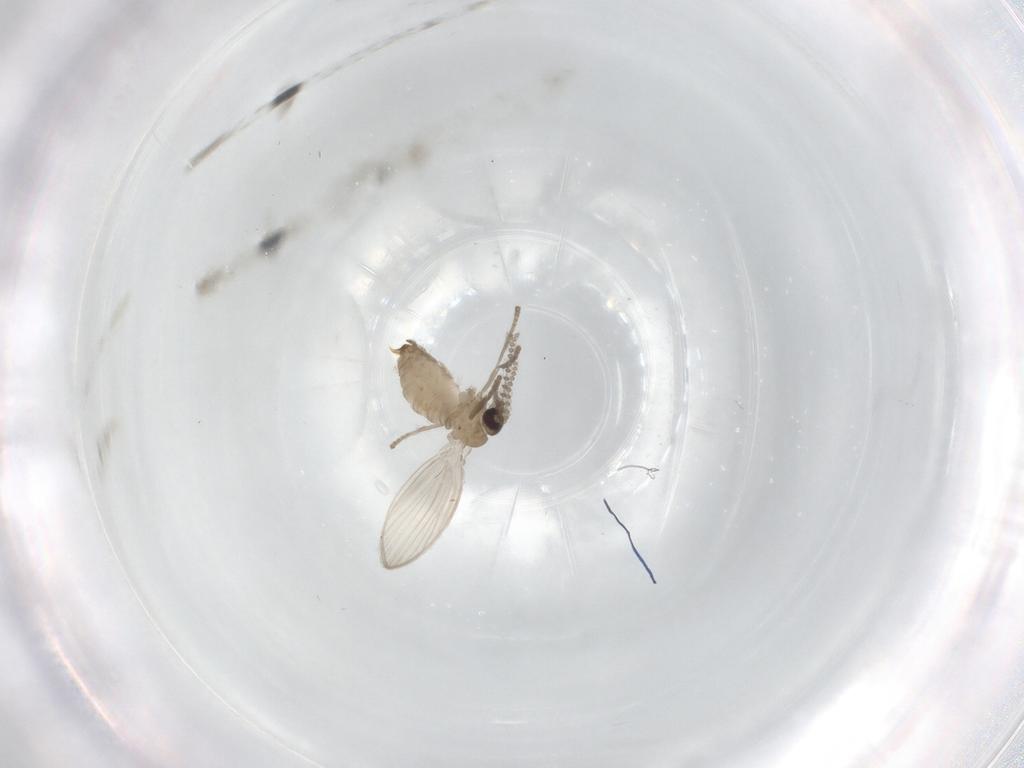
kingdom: Animalia
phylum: Arthropoda
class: Insecta
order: Diptera
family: Psychodidae
